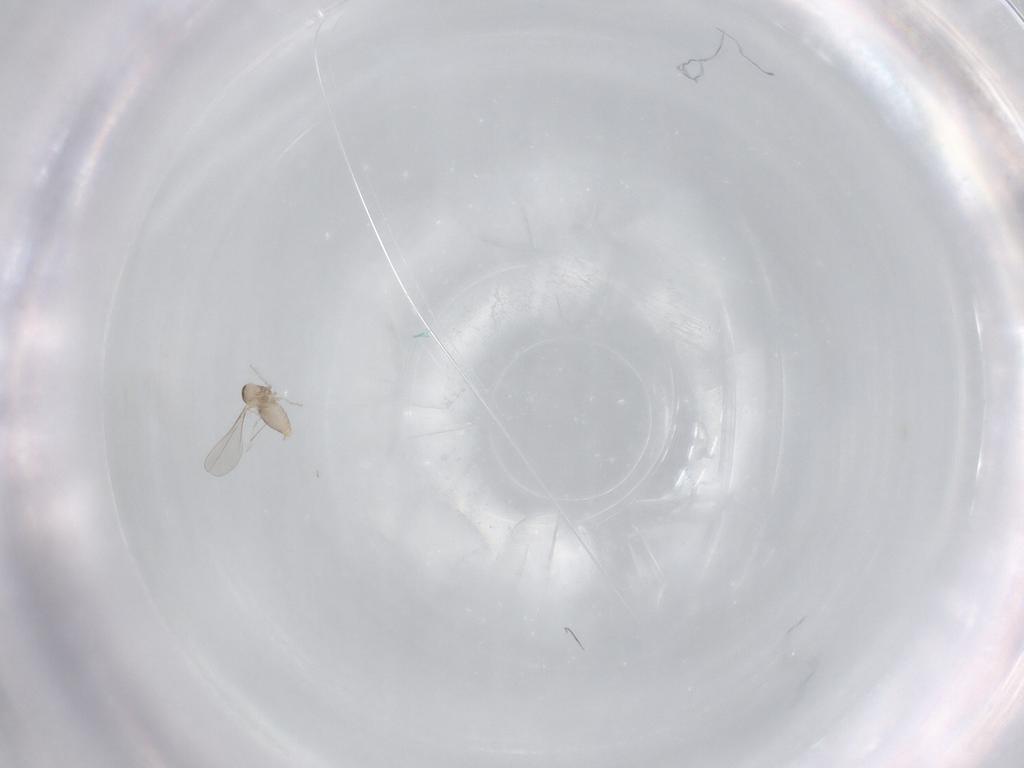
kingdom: Animalia
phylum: Arthropoda
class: Insecta
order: Diptera
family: Cecidomyiidae
